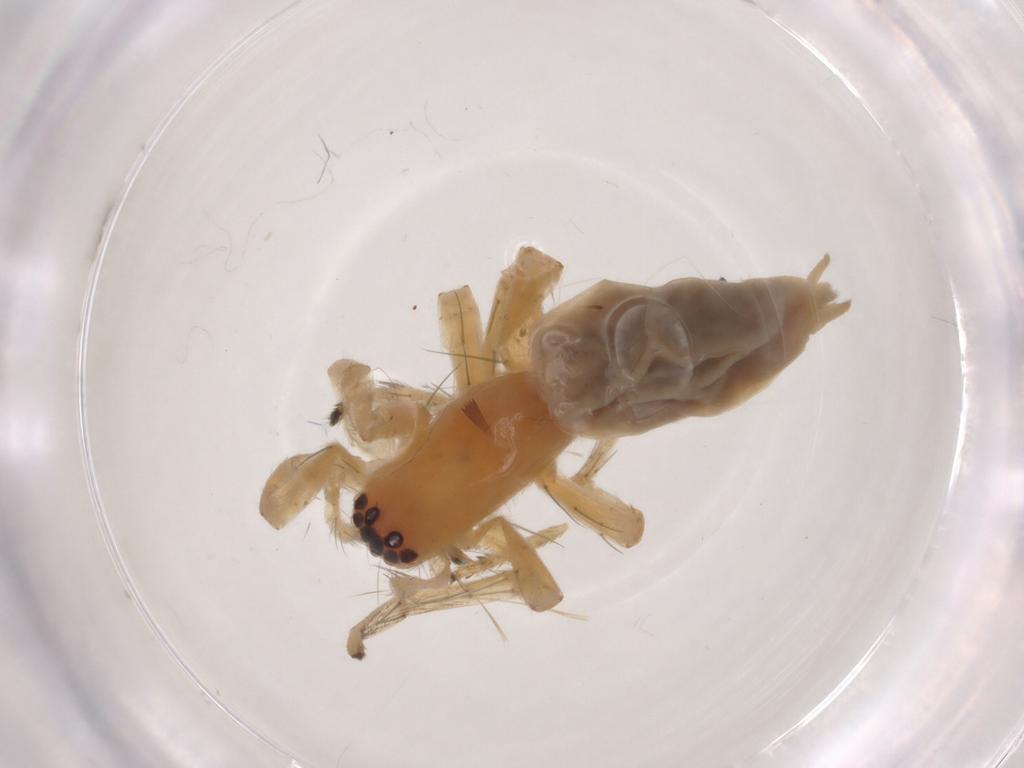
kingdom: Animalia
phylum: Arthropoda
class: Arachnida
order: Araneae
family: Clubionidae
